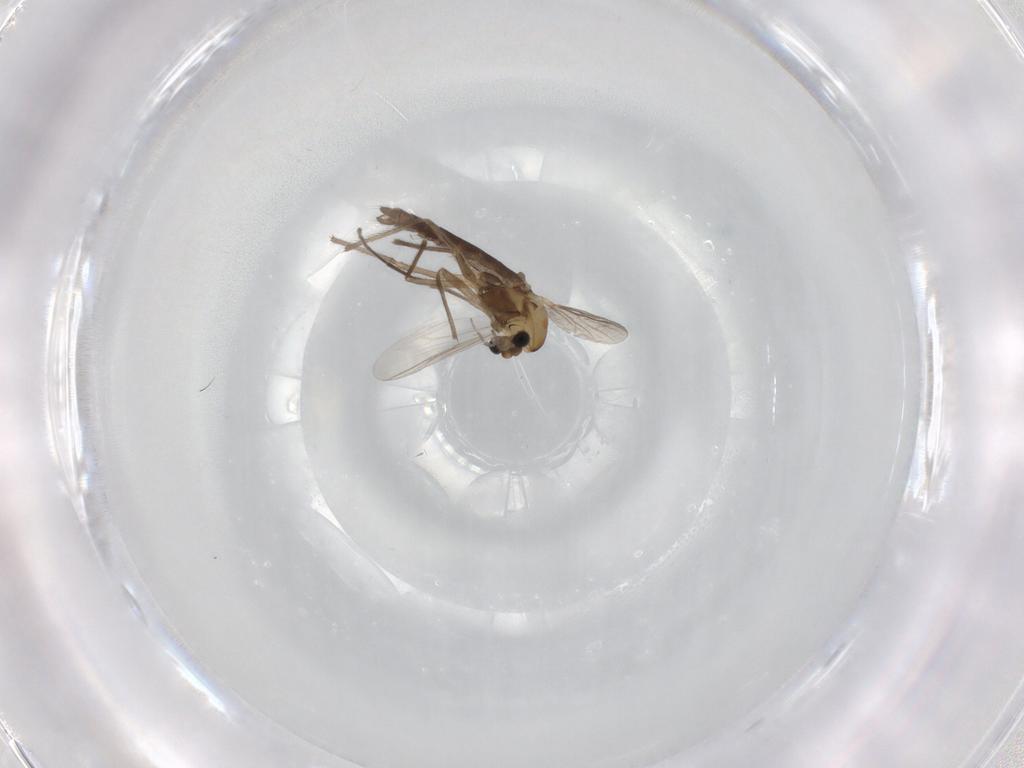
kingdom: Animalia
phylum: Arthropoda
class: Insecta
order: Diptera
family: Chironomidae
